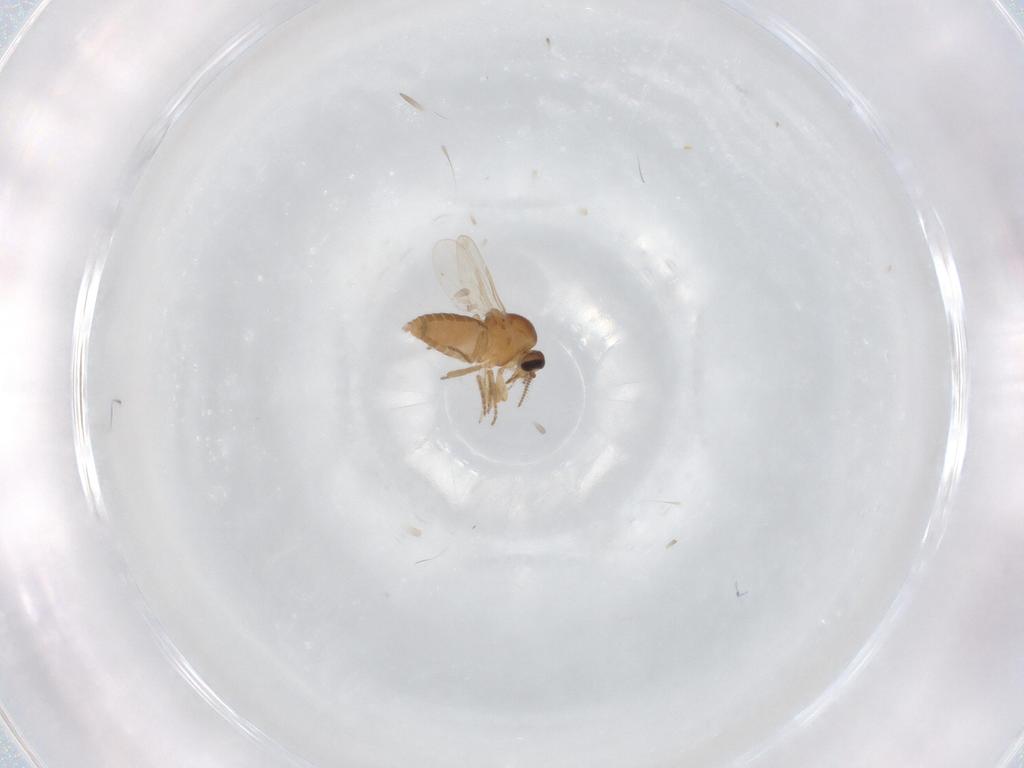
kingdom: Animalia
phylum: Arthropoda
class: Insecta
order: Diptera
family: Ceratopogonidae
